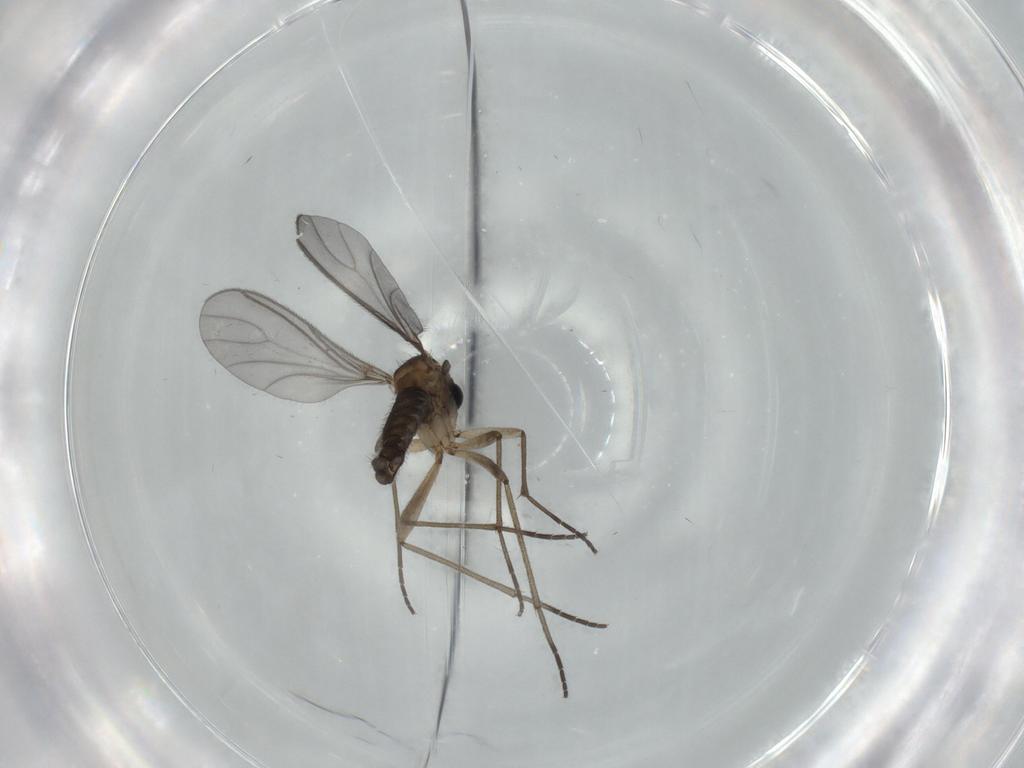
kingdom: Animalia
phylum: Arthropoda
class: Insecta
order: Diptera
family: Sciaridae
